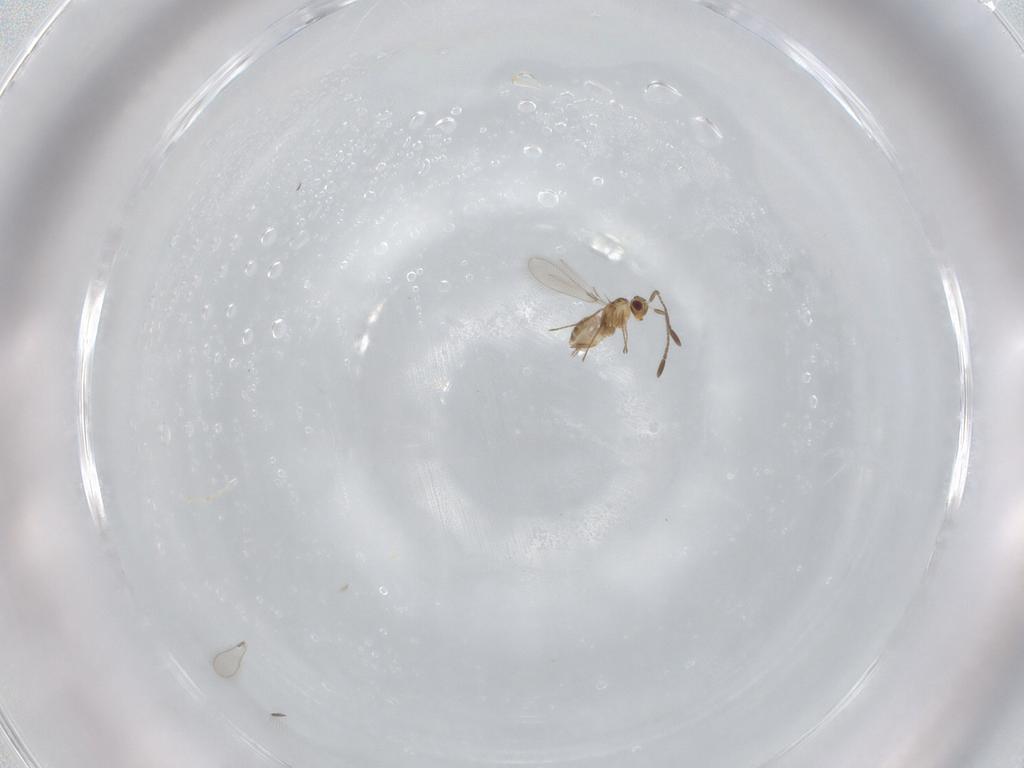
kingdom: Animalia
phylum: Arthropoda
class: Insecta
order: Hymenoptera
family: Mymaridae
